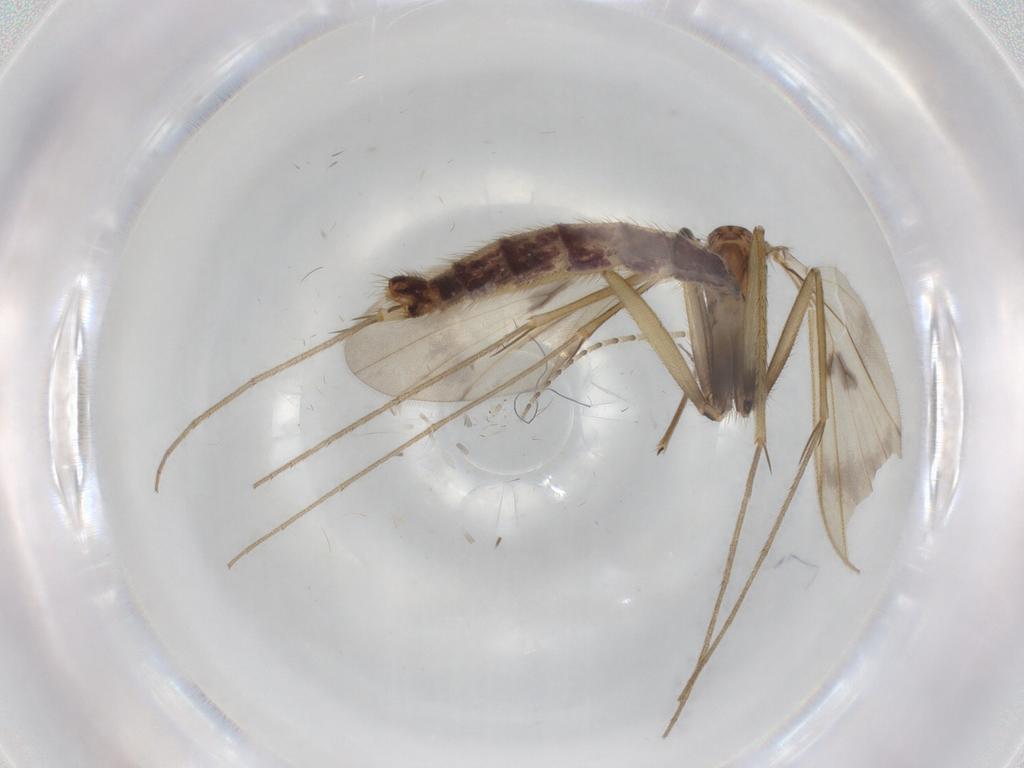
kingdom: Animalia
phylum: Arthropoda
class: Insecta
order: Diptera
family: Cecidomyiidae
